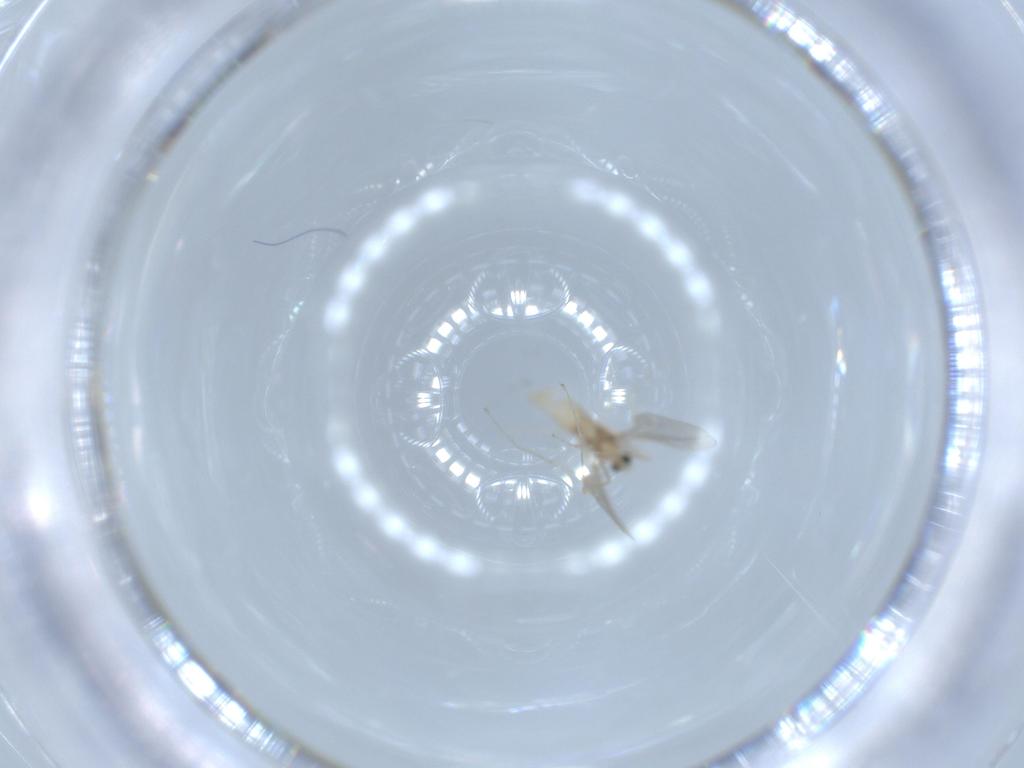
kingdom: Animalia
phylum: Arthropoda
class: Insecta
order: Diptera
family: Cecidomyiidae
